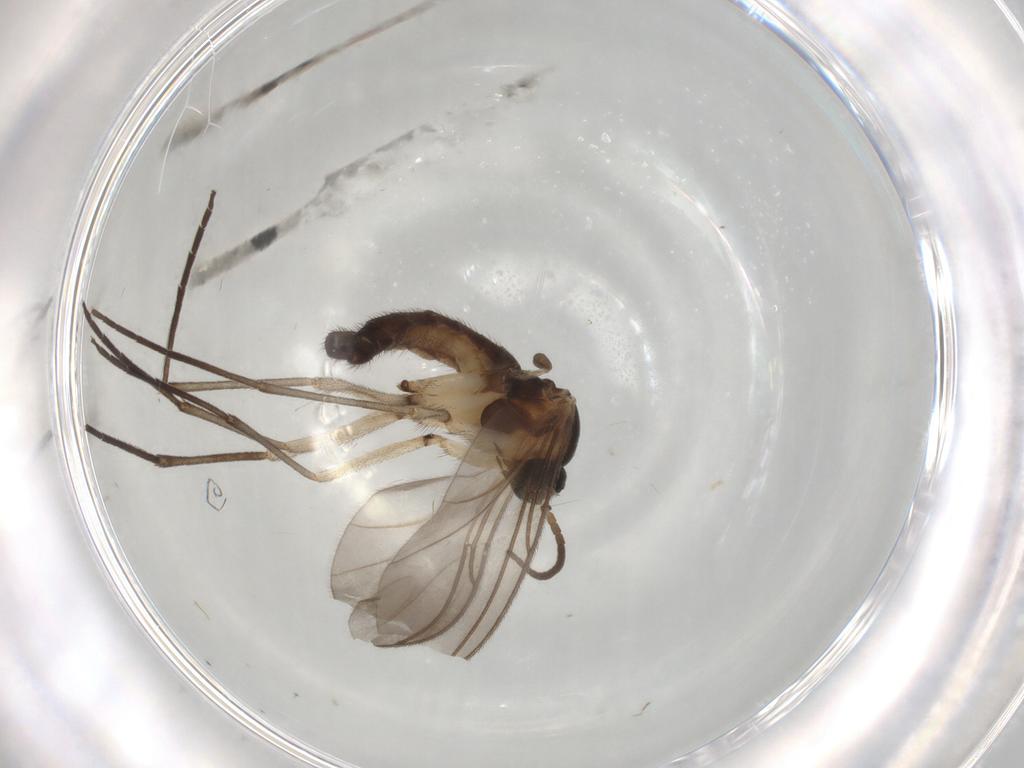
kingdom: Animalia
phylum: Arthropoda
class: Insecta
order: Diptera
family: Sciaridae
